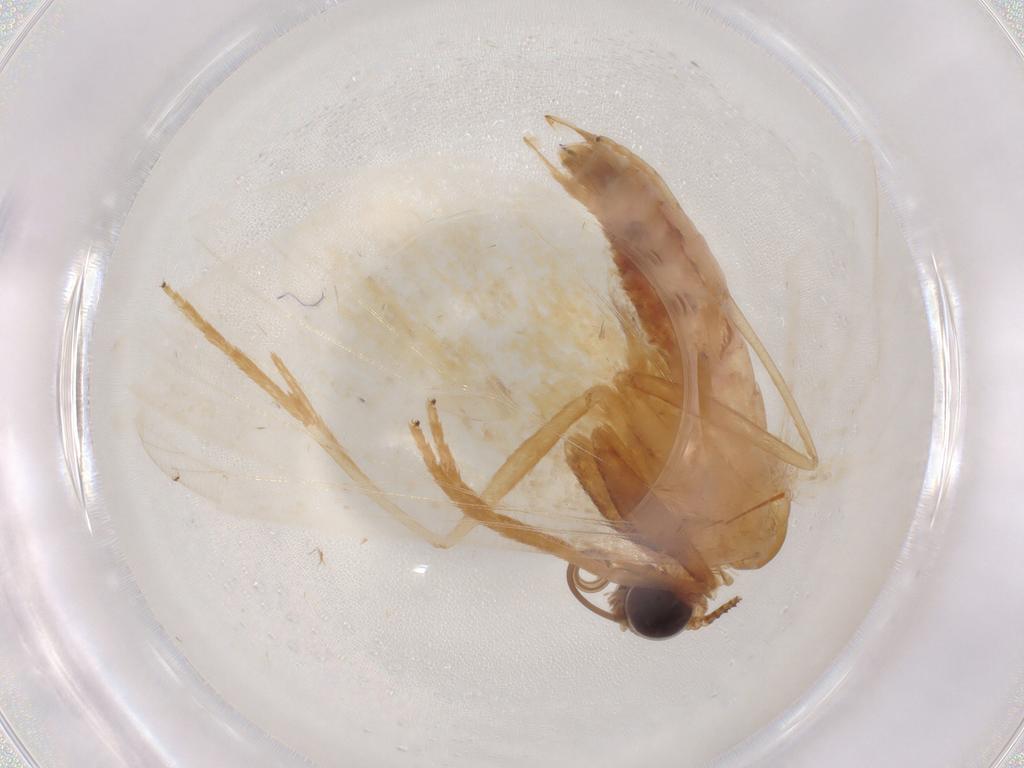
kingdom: Animalia
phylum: Arthropoda
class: Insecta
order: Lepidoptera
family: Geometridae
